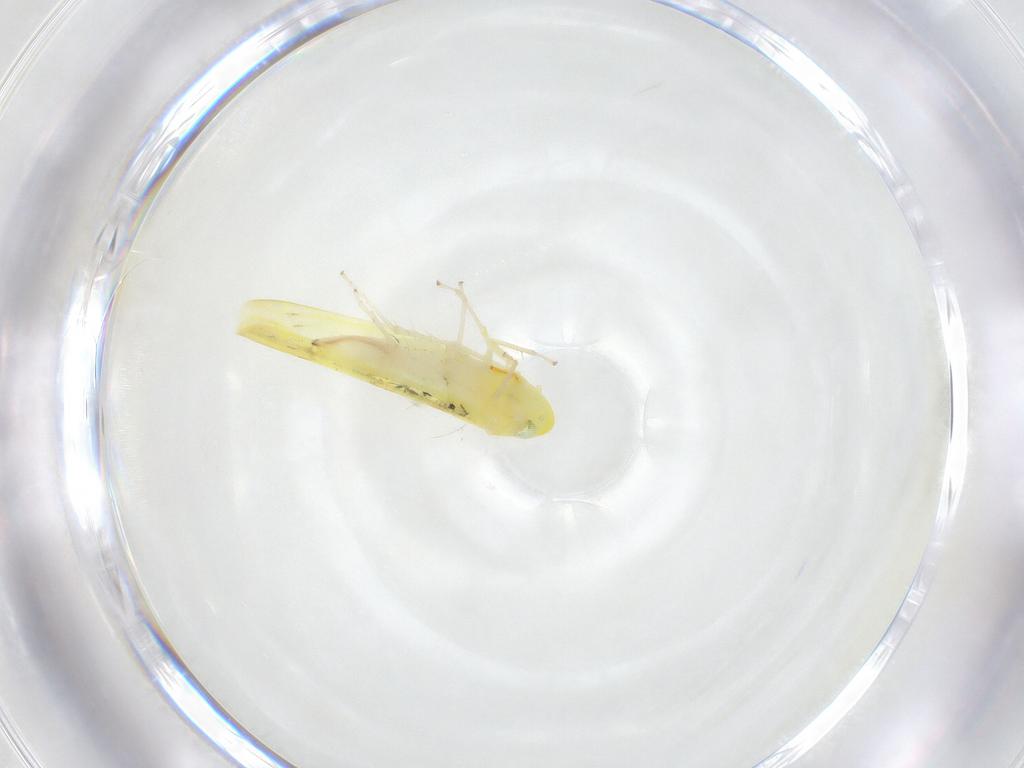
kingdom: Animalia
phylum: Arthropoda
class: Insecta
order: Hemiptera
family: Cicadellidae
